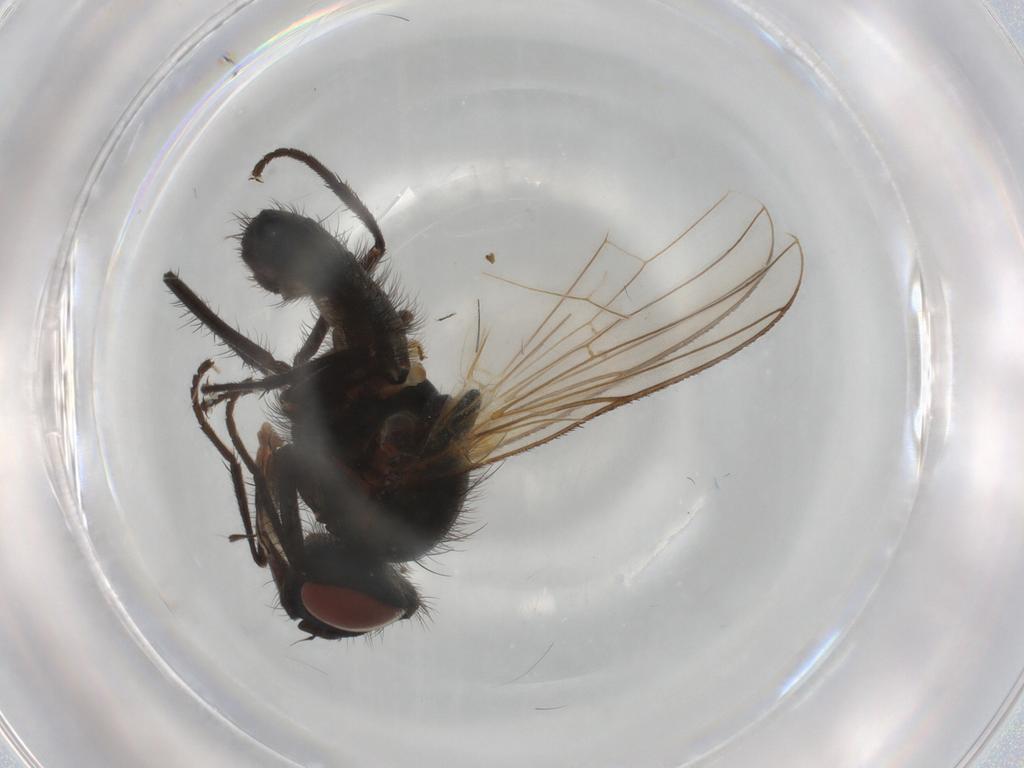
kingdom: Animalia
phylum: Arthropoda
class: Insecta
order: Diptera
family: Anthomyiidae
